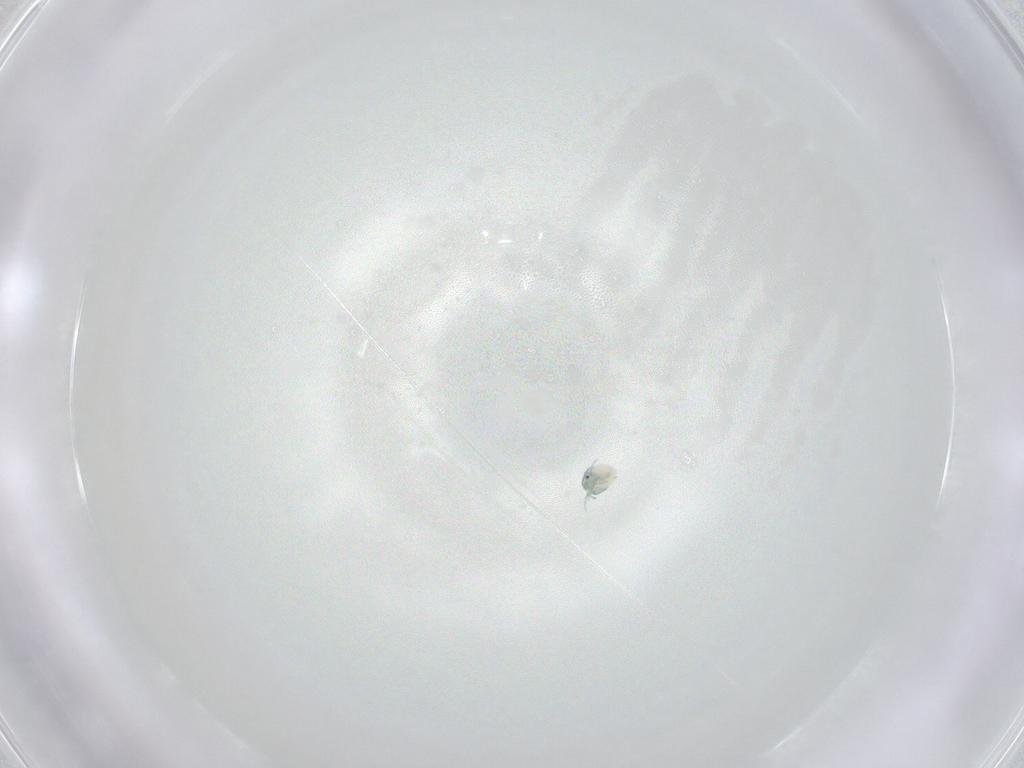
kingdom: Animalia
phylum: Arthropoda
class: Arachnida
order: Trombidiformes
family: Arrenuridae
